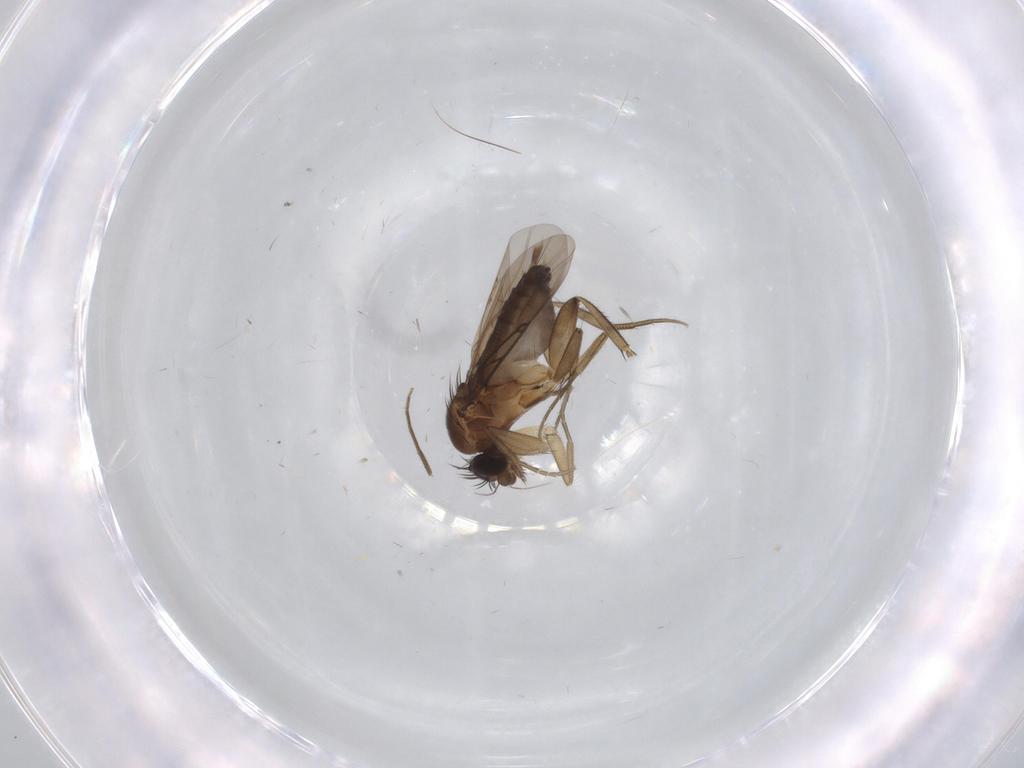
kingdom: Animalia
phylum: Arthropoda
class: Insecta
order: Diptera
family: Phoridae
